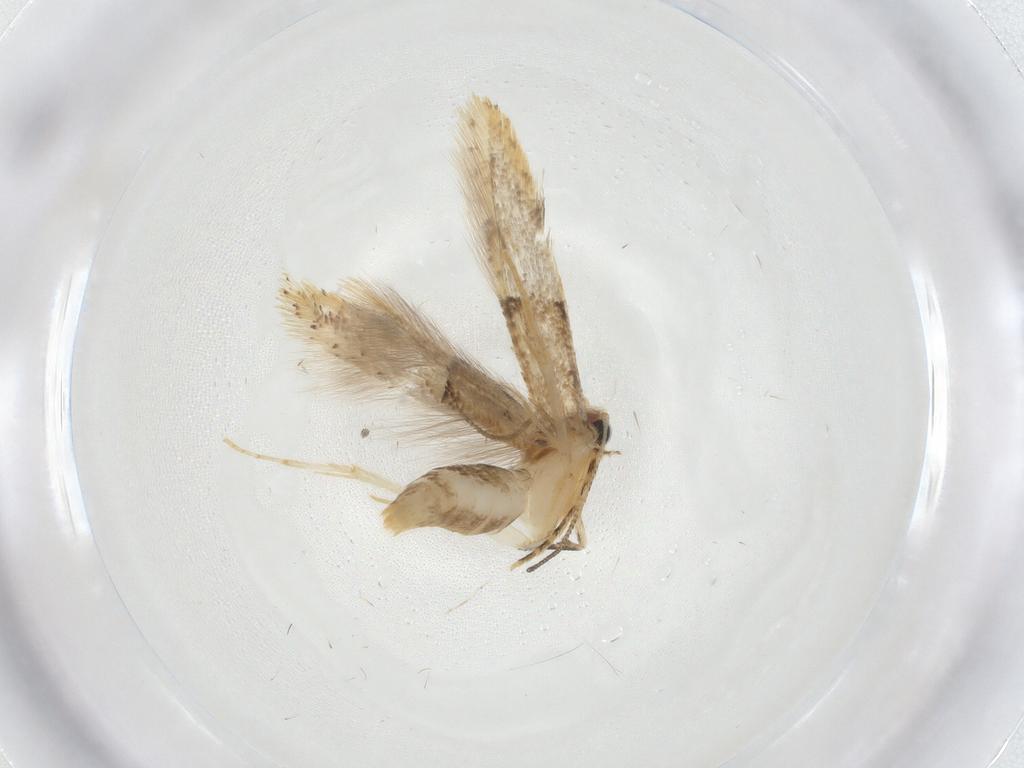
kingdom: Animalia
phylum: Arthropoda
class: Insecta
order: Lepidoptera
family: Tineidae
